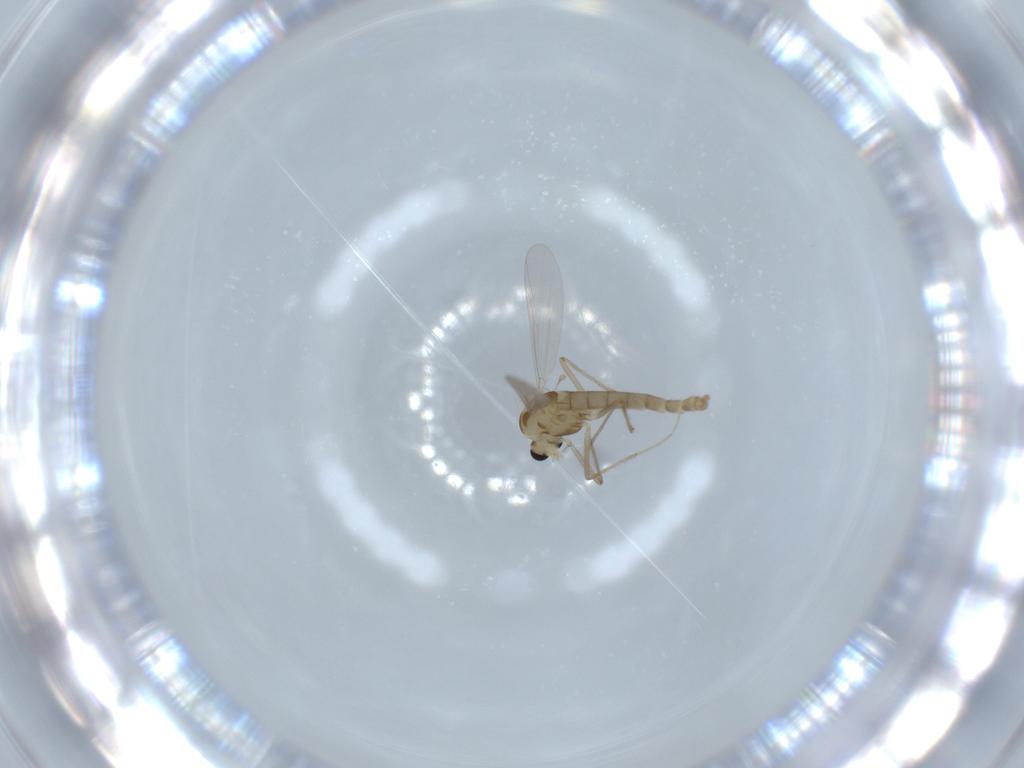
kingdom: Animalia
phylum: Arthropoda
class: Insecta
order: Diptera
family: Chironomidae
